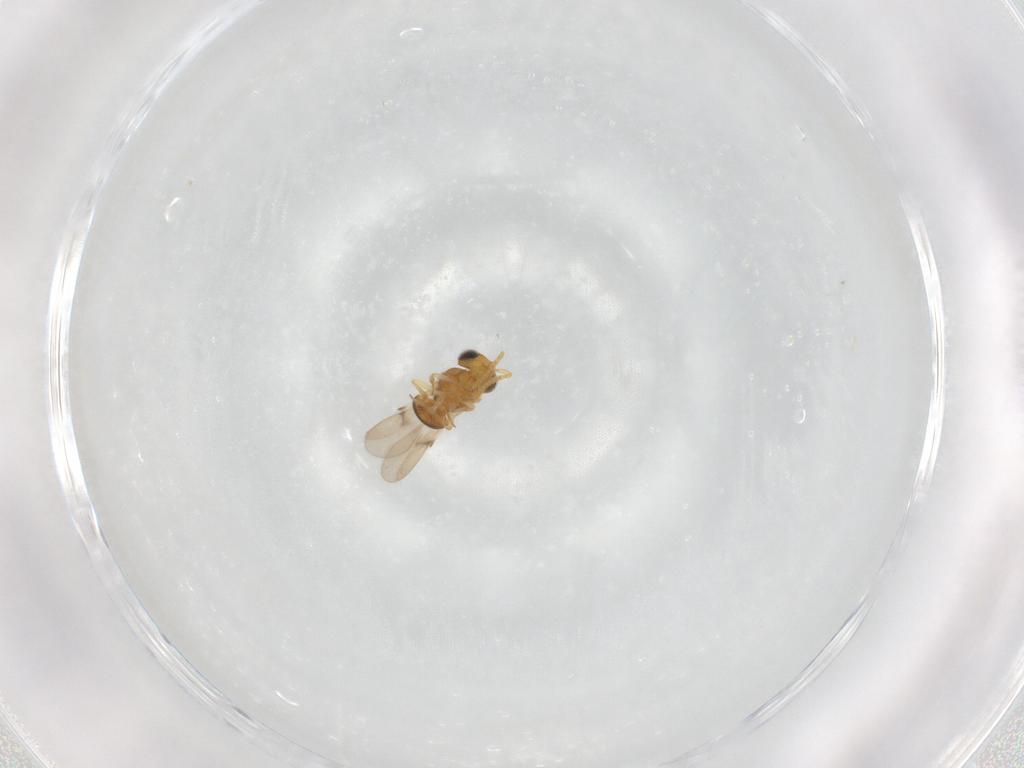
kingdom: Animalia
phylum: Arthropoda
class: Insecta
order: Hymenoptera
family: Scelionidae
